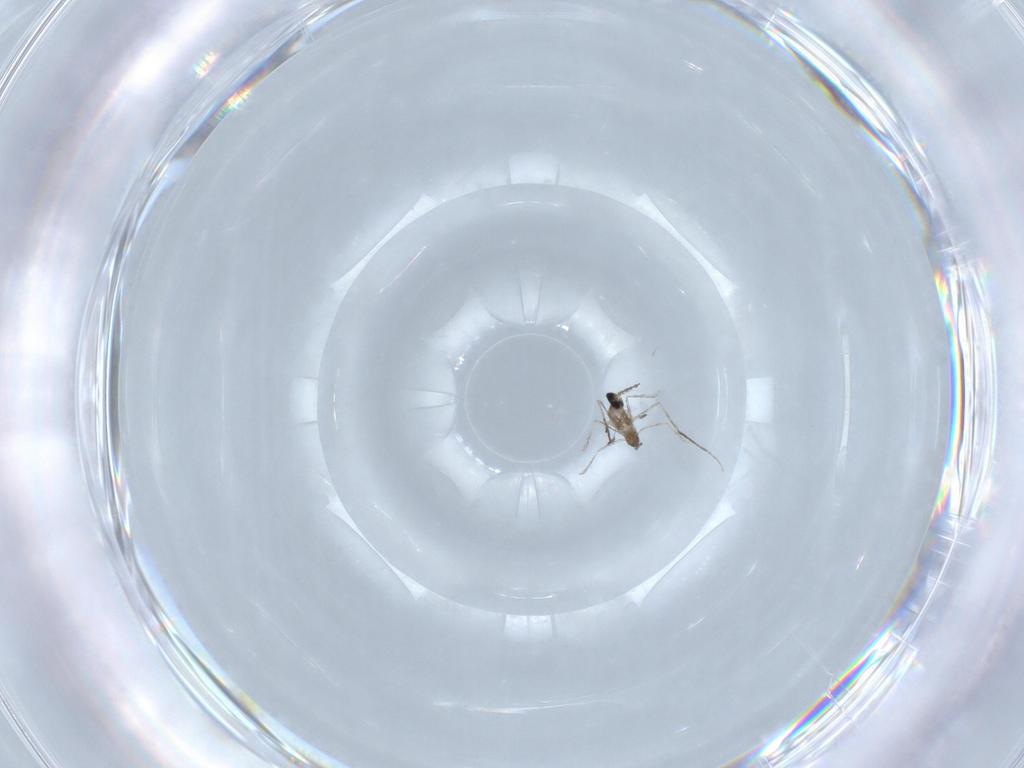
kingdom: Animalia
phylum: Arthropoda
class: Insecta
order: Diptera
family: Cecidomyiidae
